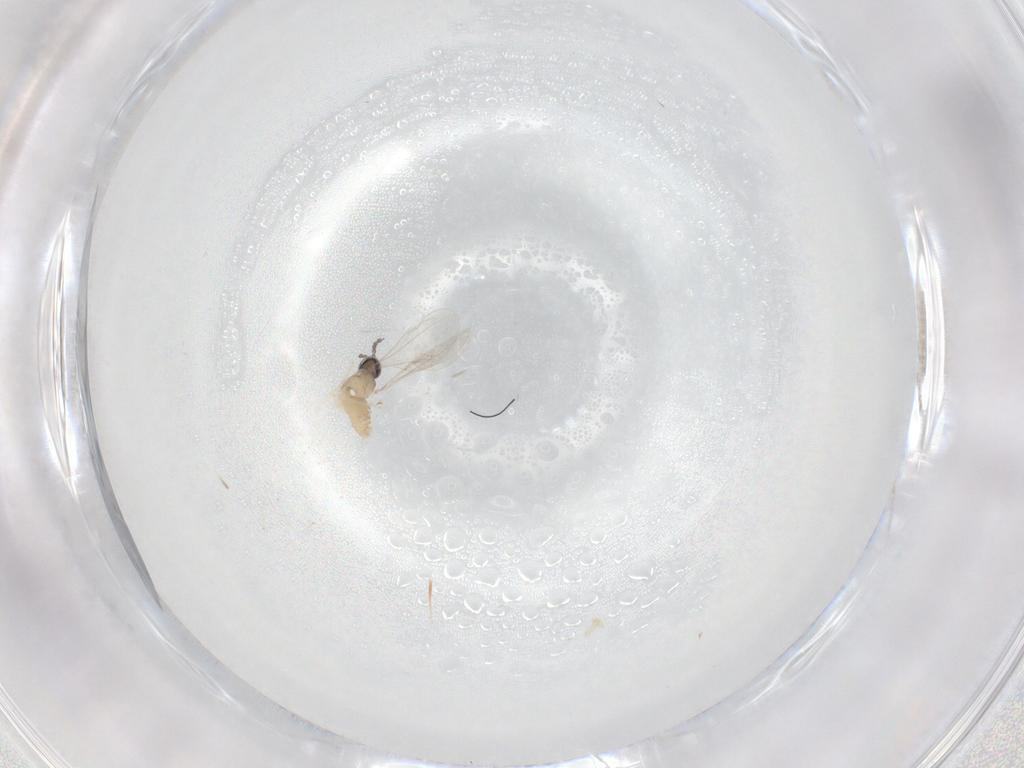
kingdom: Animalia
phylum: Arthropoda
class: Insecta
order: Diptera
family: Cecidomyiidae
